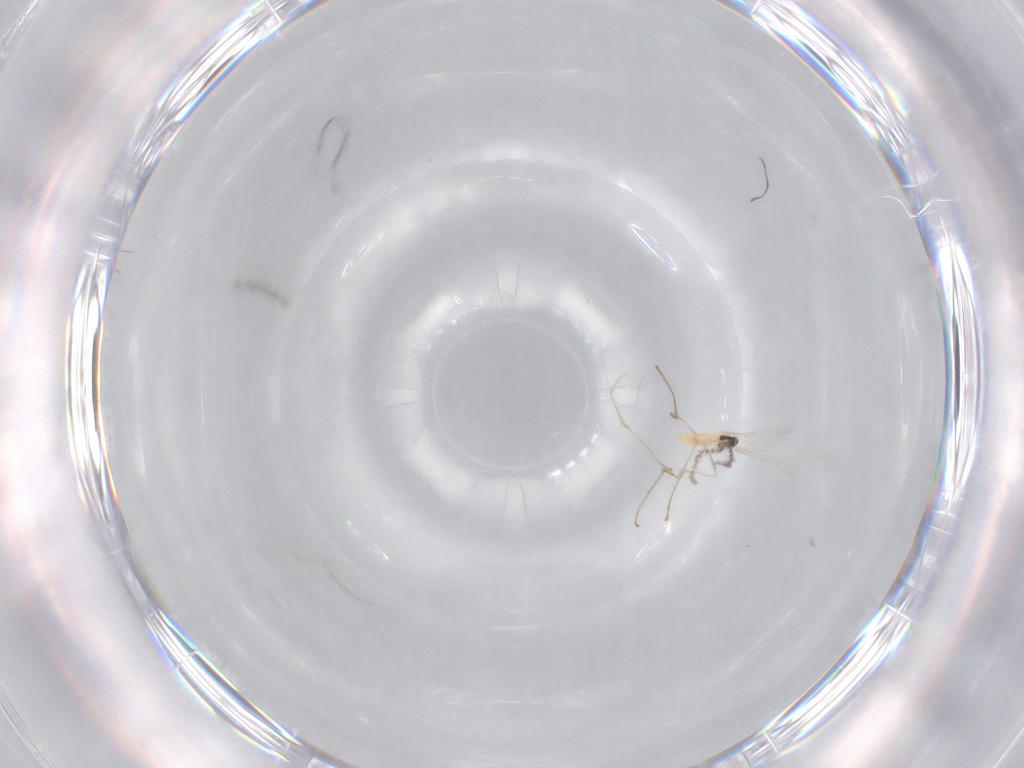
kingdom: Animalia
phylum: Arthropoda
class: Insecta
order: Diptera
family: Cecidomyiidae
